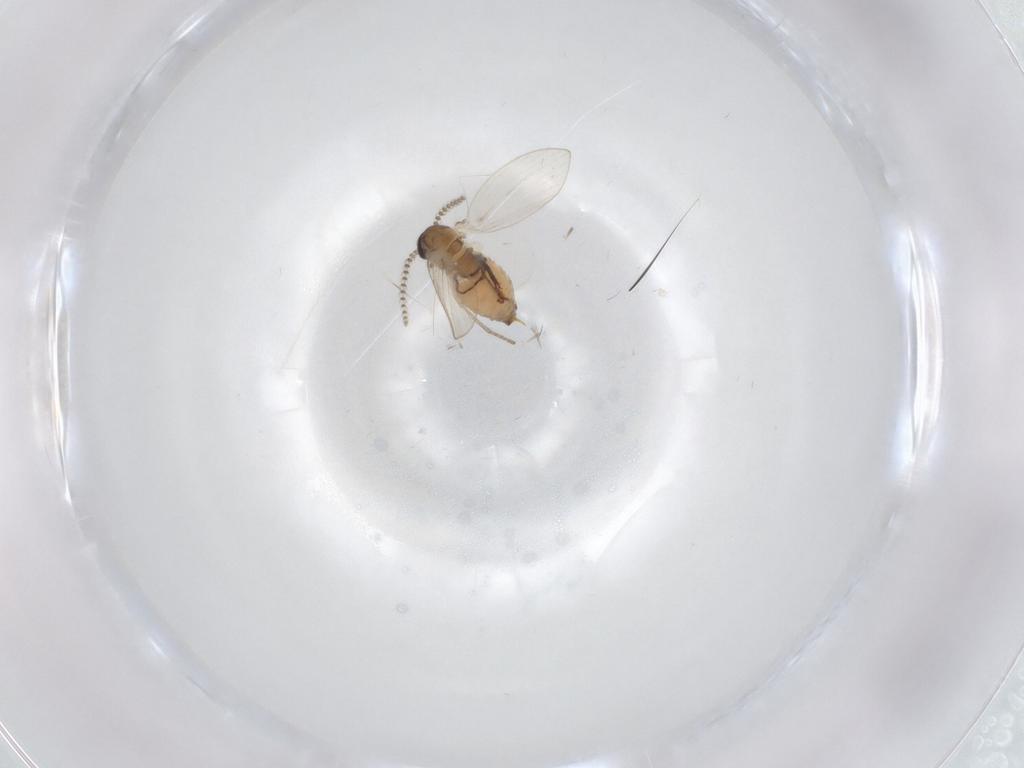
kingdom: Animalia
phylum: Arthropoda
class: Insecta
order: Diptera
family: Psychodidae
